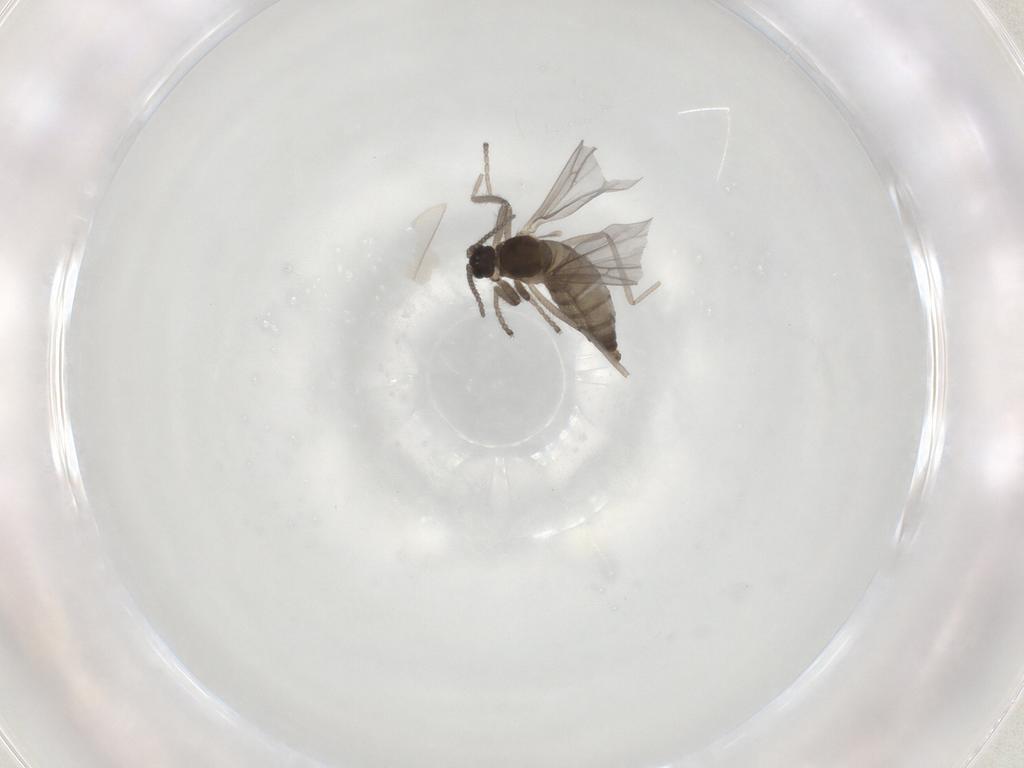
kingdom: Animalia
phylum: Arthropoda
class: Insecta
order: Diptera
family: Cecidomyiidae
